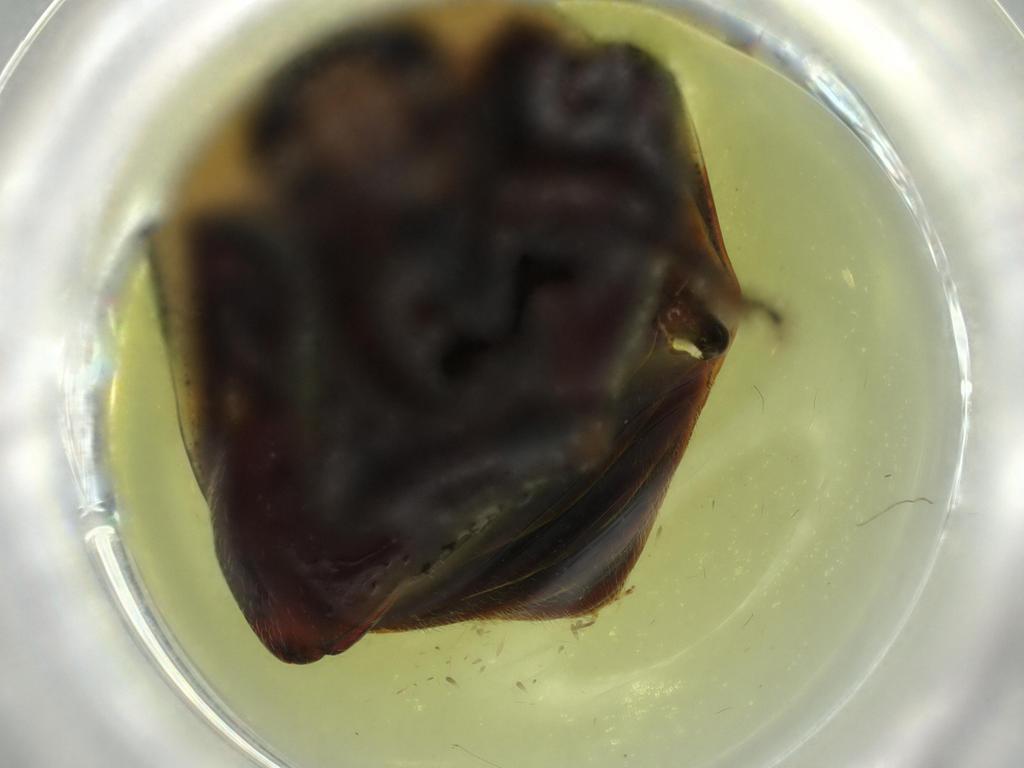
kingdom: Animalia
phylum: Arthropoda
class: Insecta
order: Coleoptera
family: Chrysomelidae
